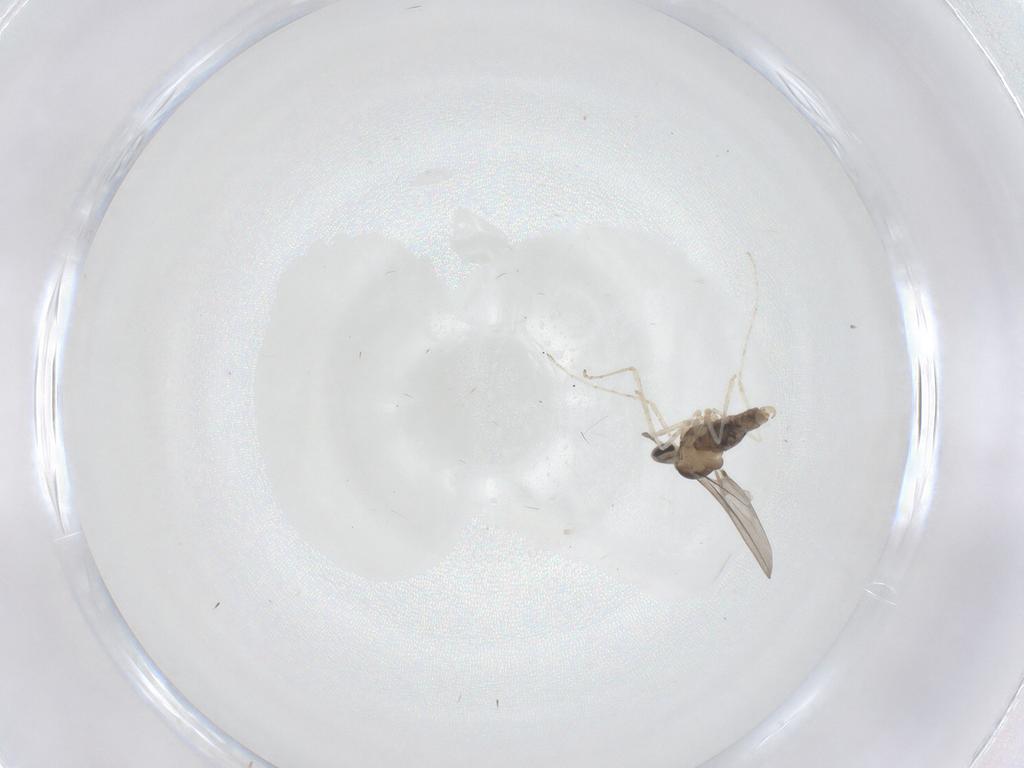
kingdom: Animalia
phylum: Arthropoda
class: Insecta
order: Diptera
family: Cecidomyiidae
